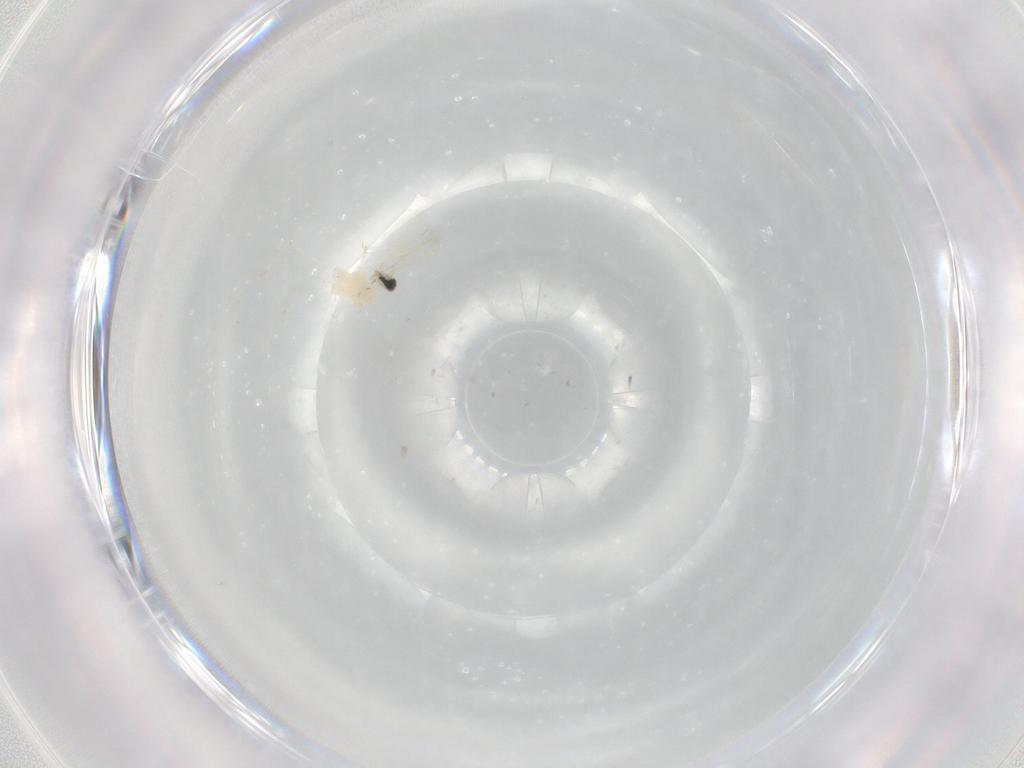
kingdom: Animalia
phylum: Arthropoda
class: Insecta
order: Diptera
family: Cecidomyiidae
